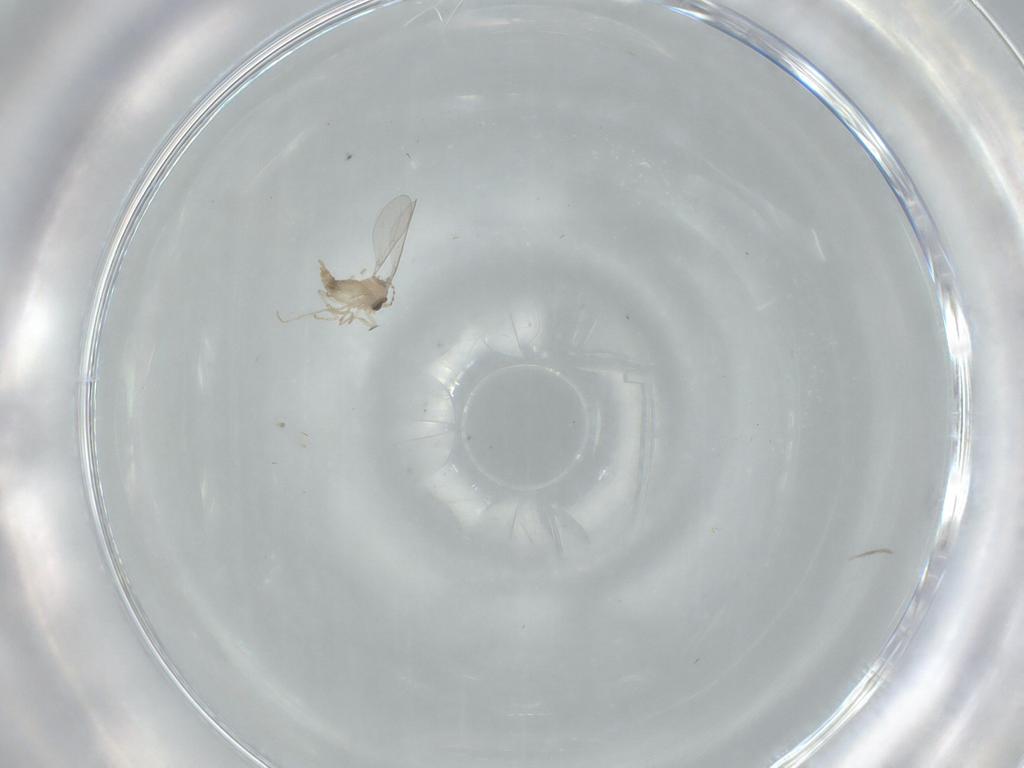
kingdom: Animalia
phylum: Arthropoda
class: Insecta
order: Diptera
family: Cecidomyiidae
